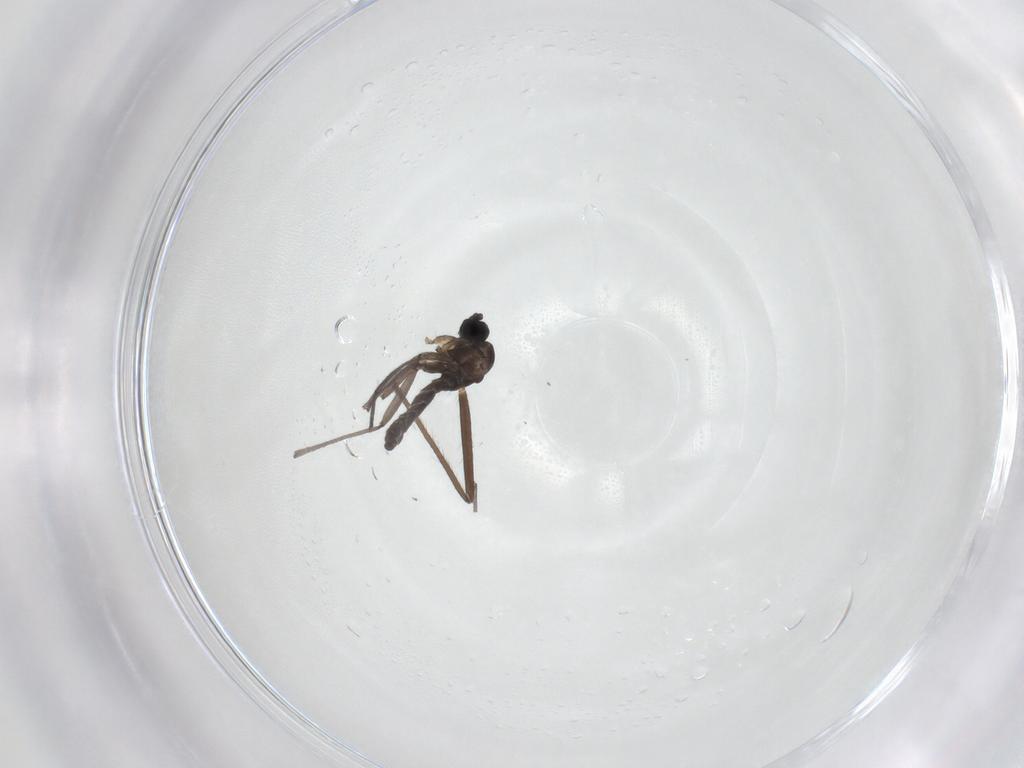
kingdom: Animalia
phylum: Arthropoda
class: Insecta
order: Diptera
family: Chironomidae
